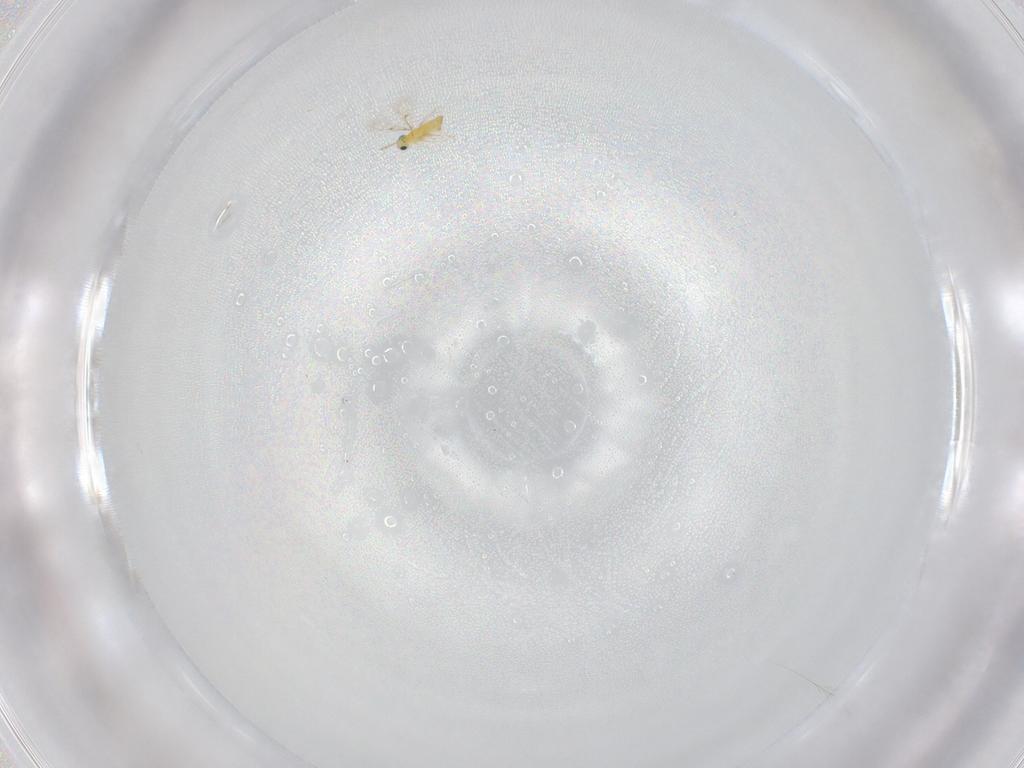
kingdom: Animalia
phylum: Arthropoda
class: Insecta
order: Hymenoptera
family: Trichogrammatidae
